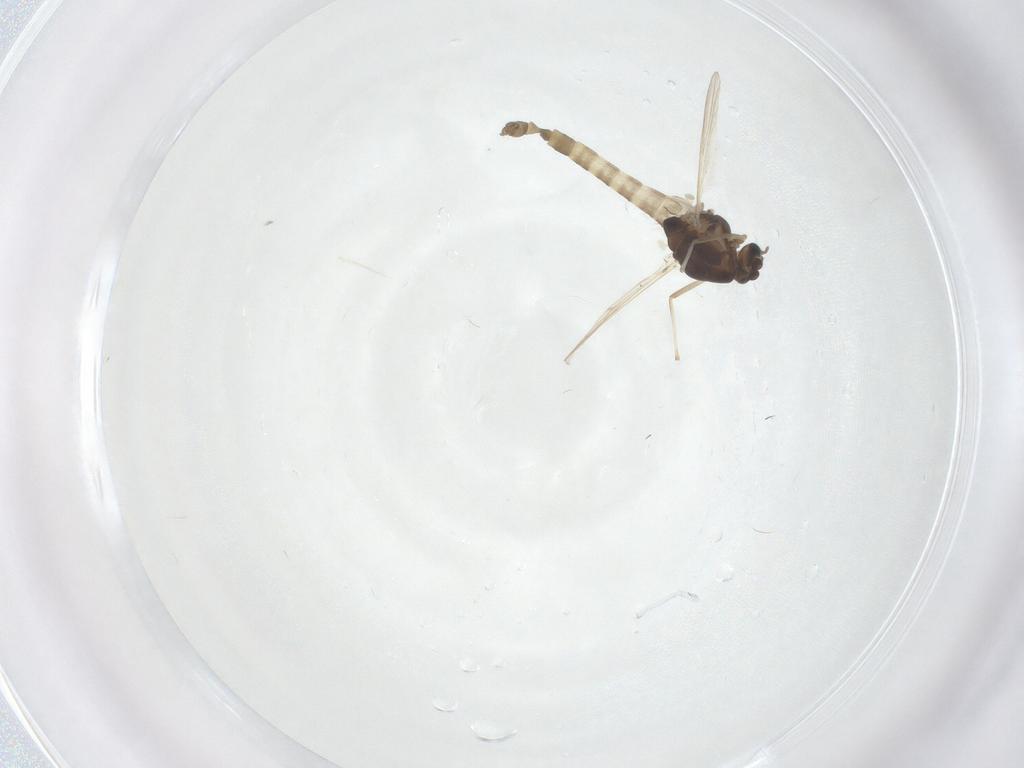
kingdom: Animalia
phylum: Arthropoda
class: Insecta
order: Diptera
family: Chironomidae
